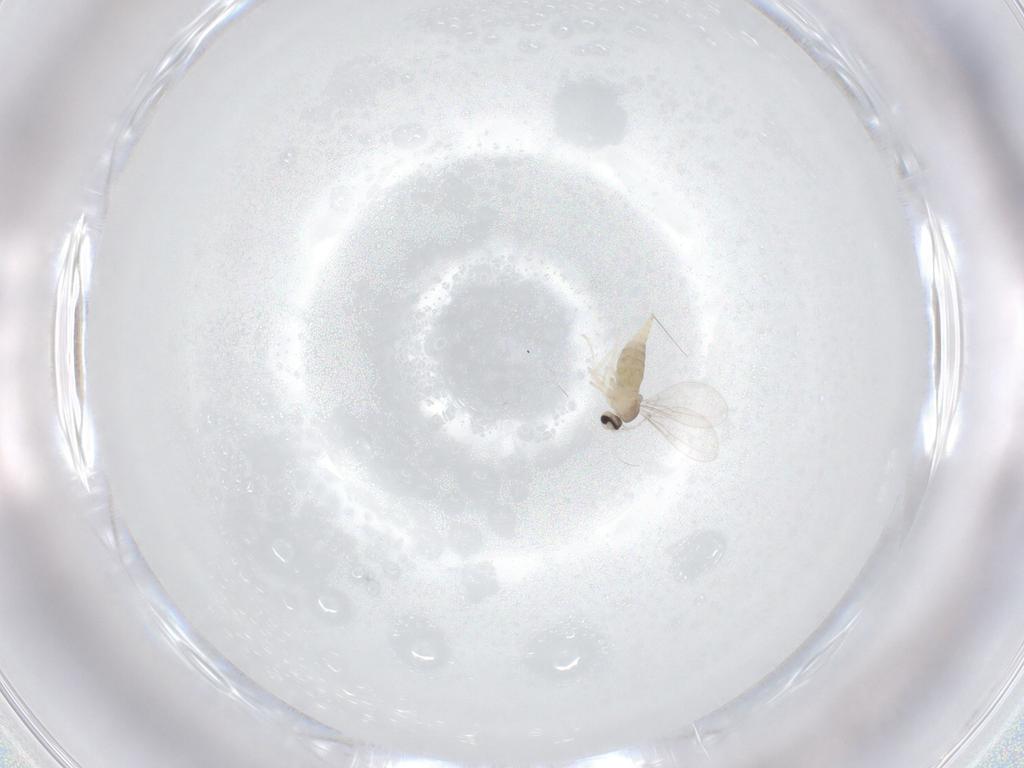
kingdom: Animalia
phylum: Arthropoda
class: Insecta
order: Diptera
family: Cecidomyiidae
